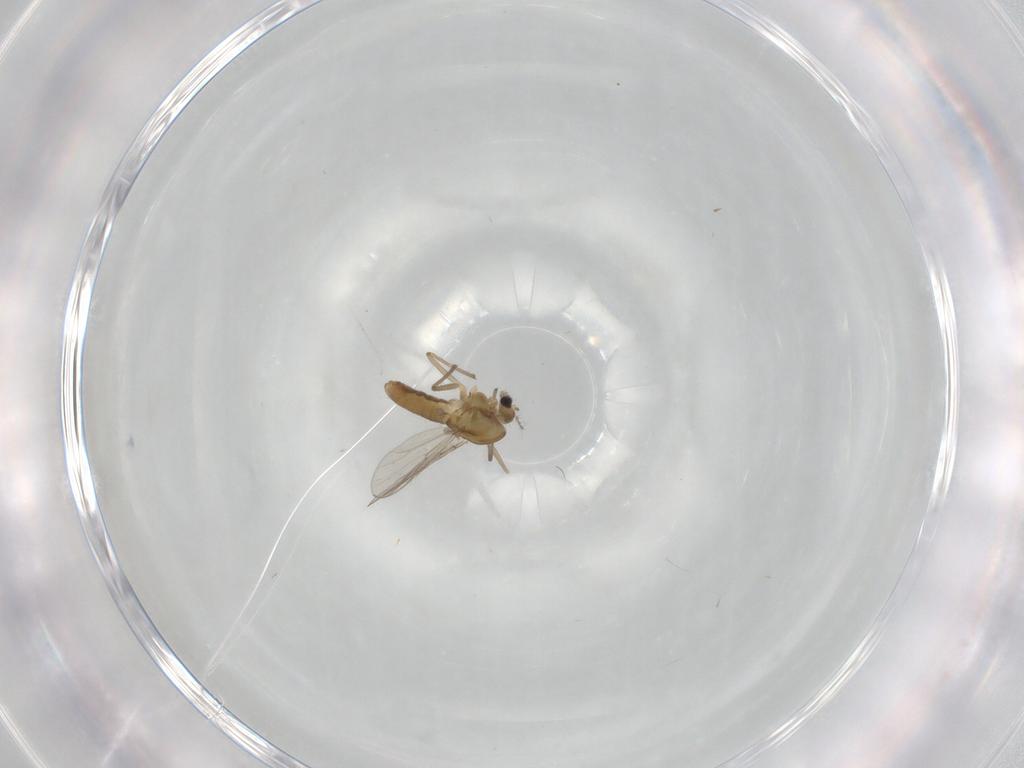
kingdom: Animalia
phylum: Arthropoda
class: Insecta
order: Diptera
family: Chironomidae
